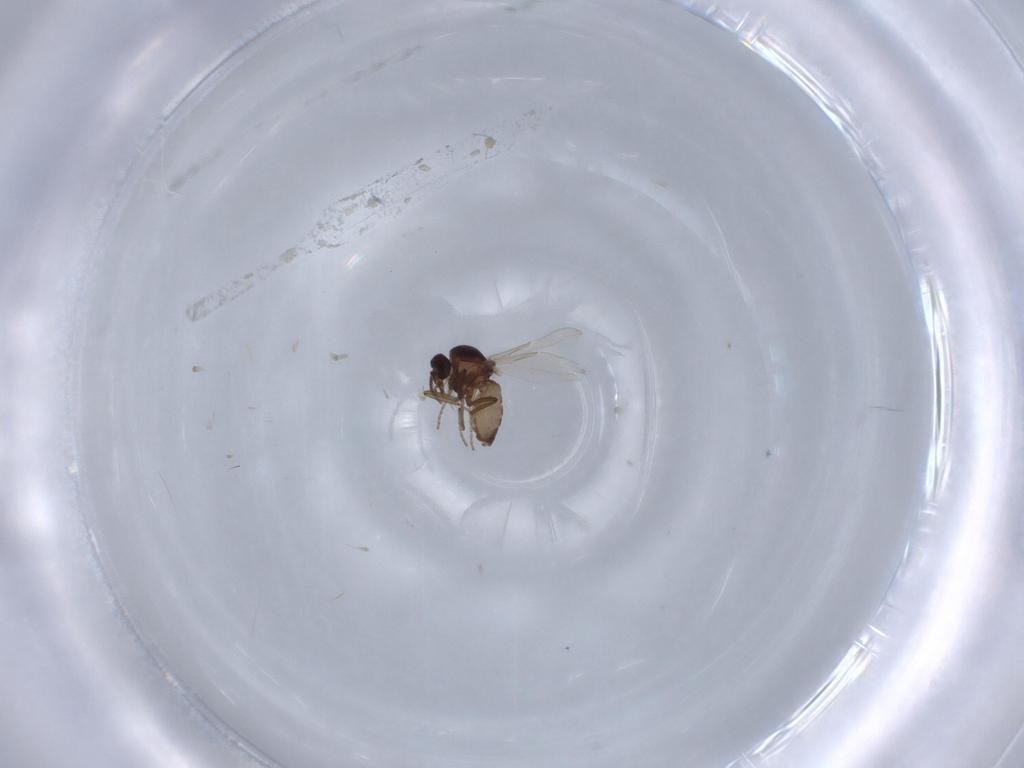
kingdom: Animalia
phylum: Arthropoda
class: Insecta
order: Diptera
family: Ceratopogonidae
